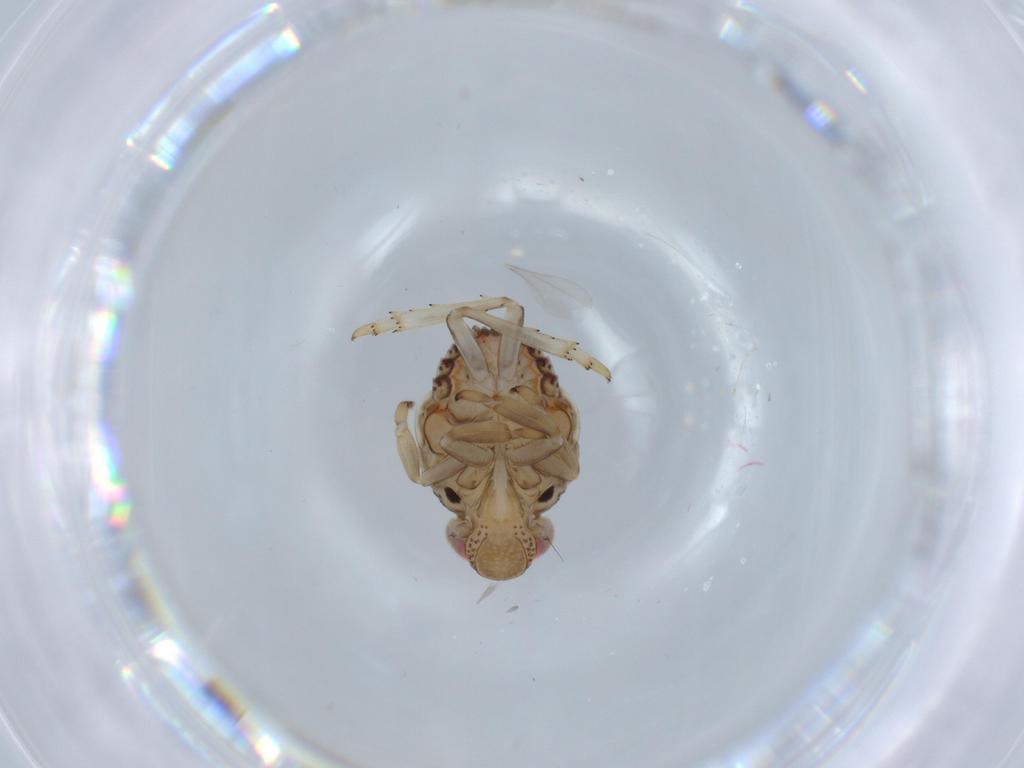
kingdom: Animalia
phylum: Arthropoda
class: Insecta
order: Hemiptera
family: Issidae
